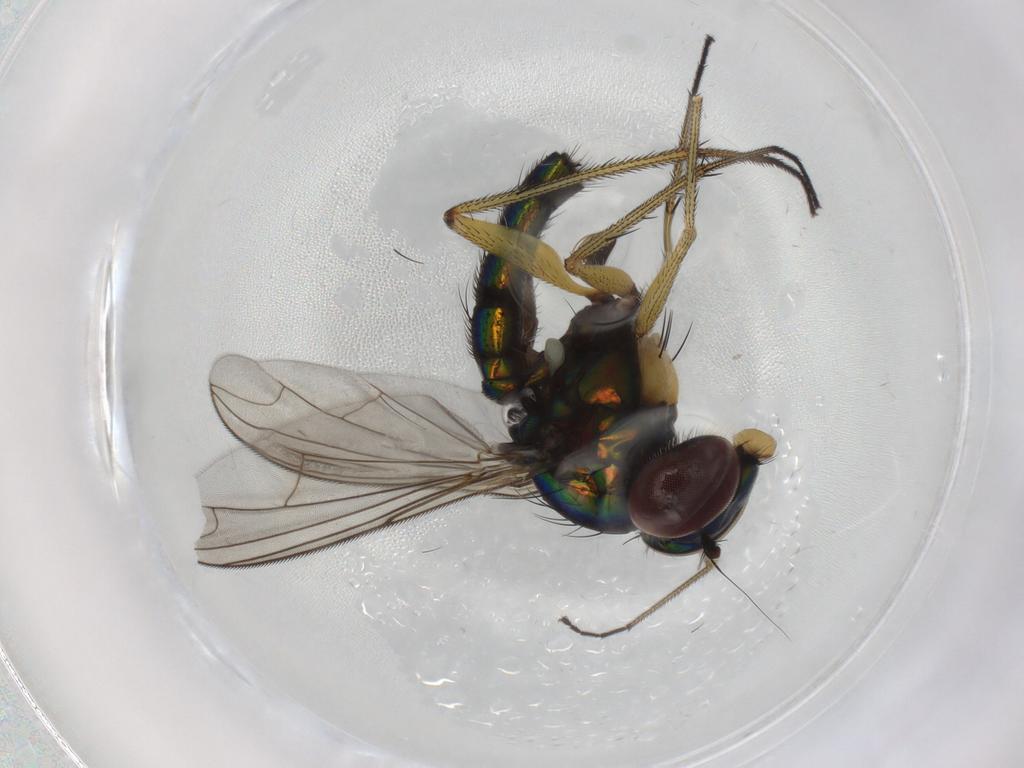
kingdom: Animalia
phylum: Arthropoda
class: Insecta
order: Diptera
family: Dolichopodidae
